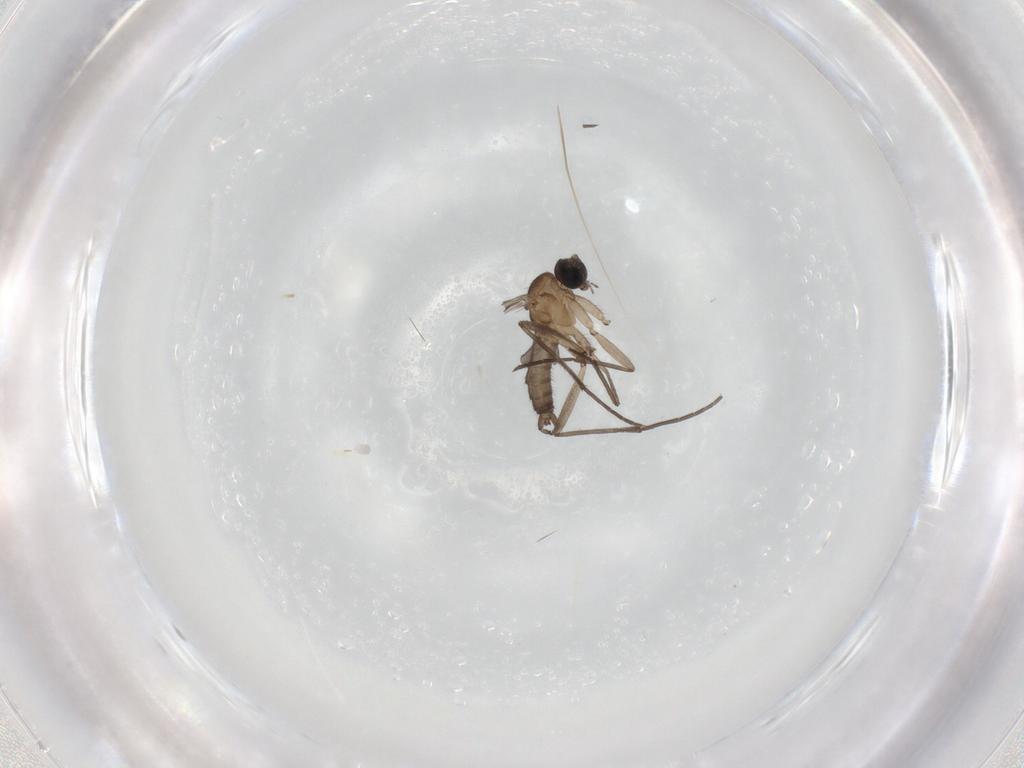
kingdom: Animalia
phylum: Arthropoda
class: Insecta
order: Diptera
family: Sciaridae
